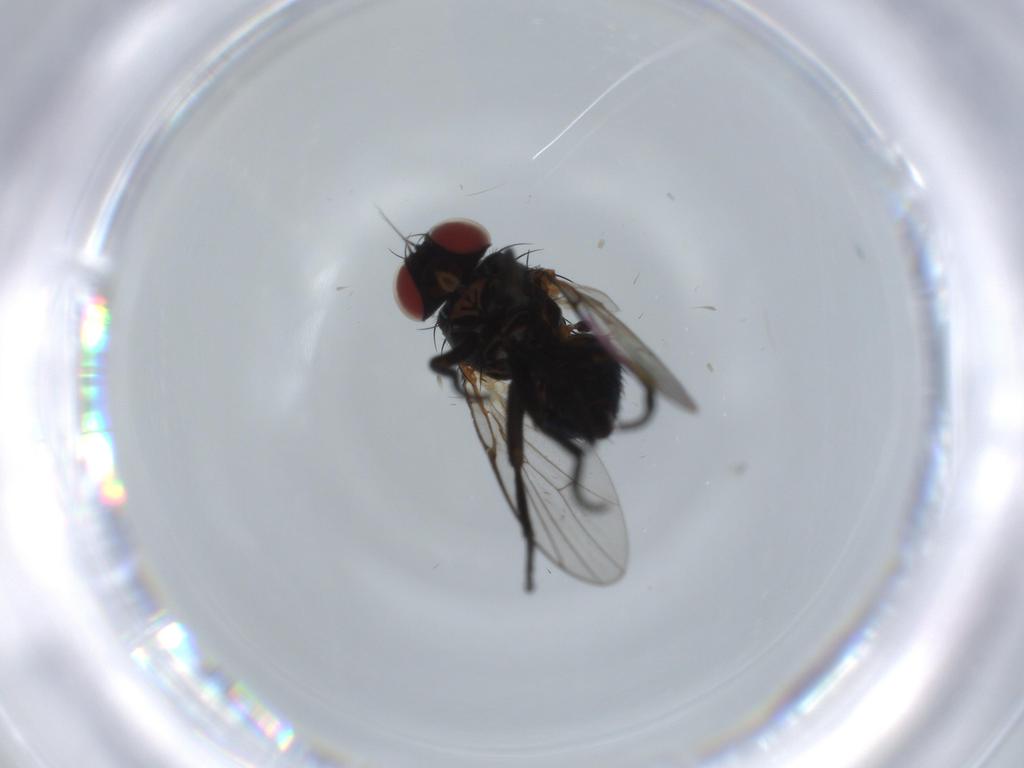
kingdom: Animalia
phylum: Arthropoda
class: Insecta
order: Diptera
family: Agromyzidae
